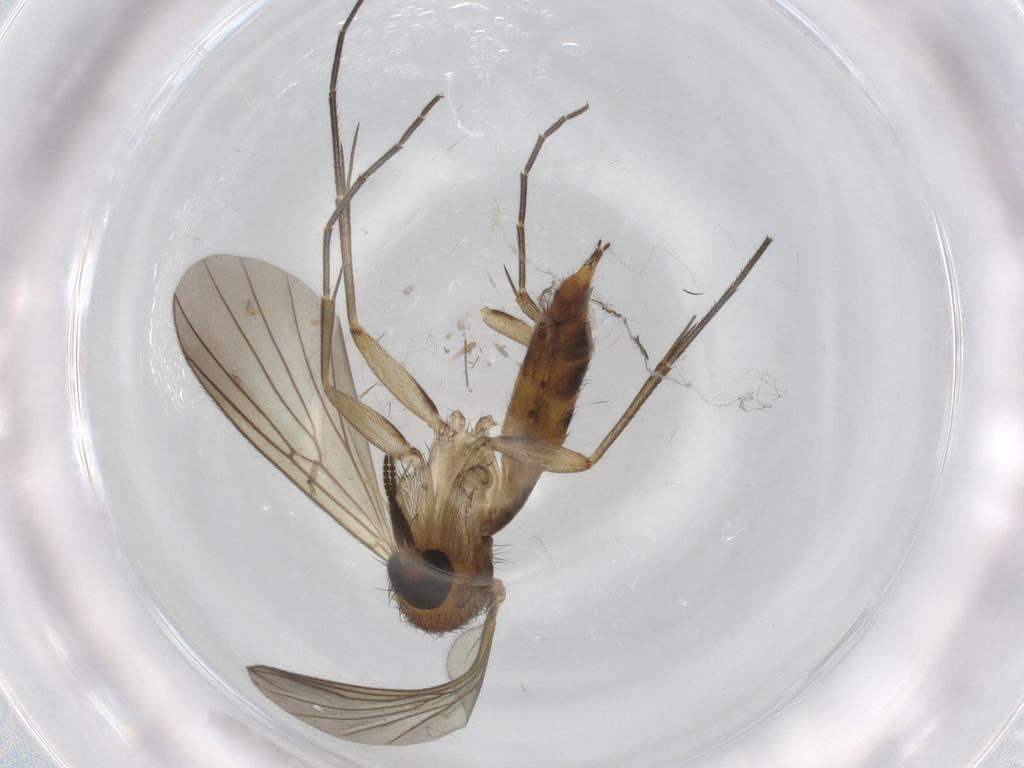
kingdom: Animalia
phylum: Arthropoda
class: Insecta
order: Diptera
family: Mycetophilidae
